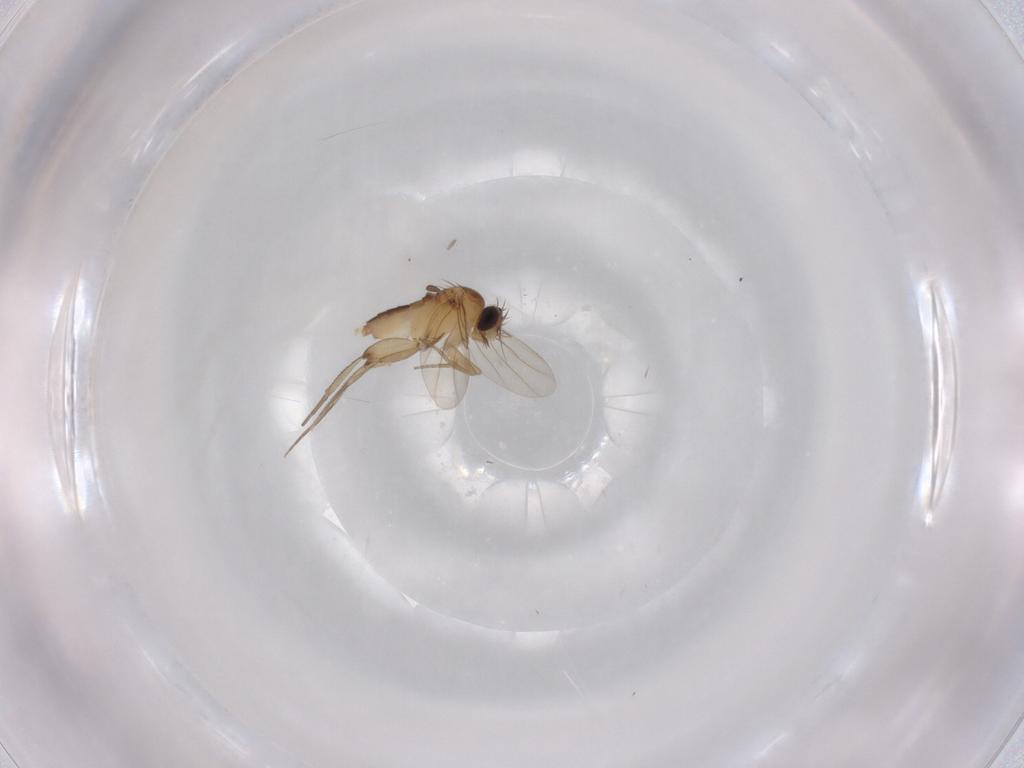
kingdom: Animalia
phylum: Arthropoda
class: Insecta
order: Diptera
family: Phoridae
